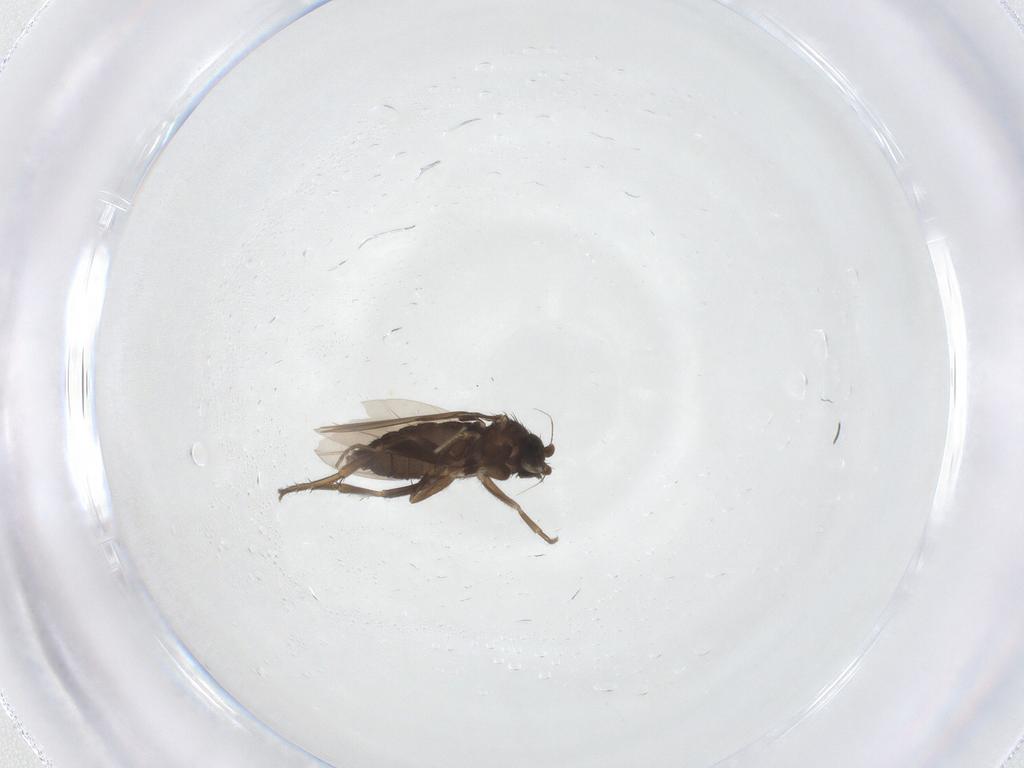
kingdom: Animalia
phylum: Arthropoda
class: Insecta
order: Diptera
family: Phoridae
